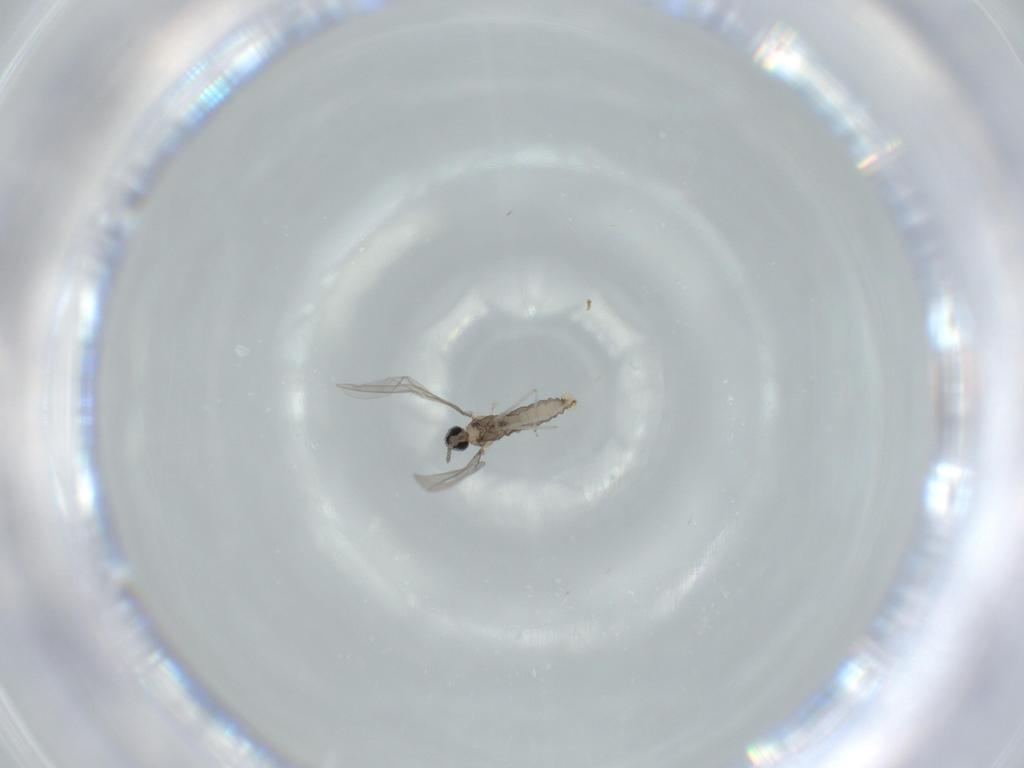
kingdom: Animalia
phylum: Arthropoda
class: Insecta
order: Diptera
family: Cecidomyiidae
